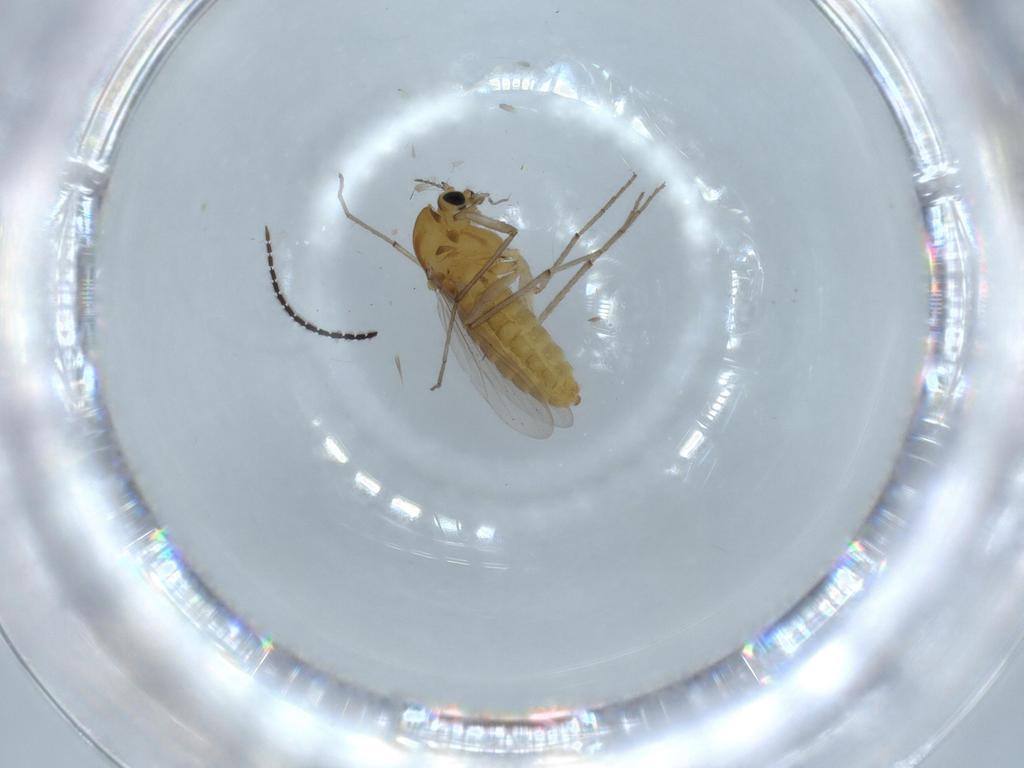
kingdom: Animalia
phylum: Arthropoda
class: Insecta
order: Diptera
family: Chironomidae
